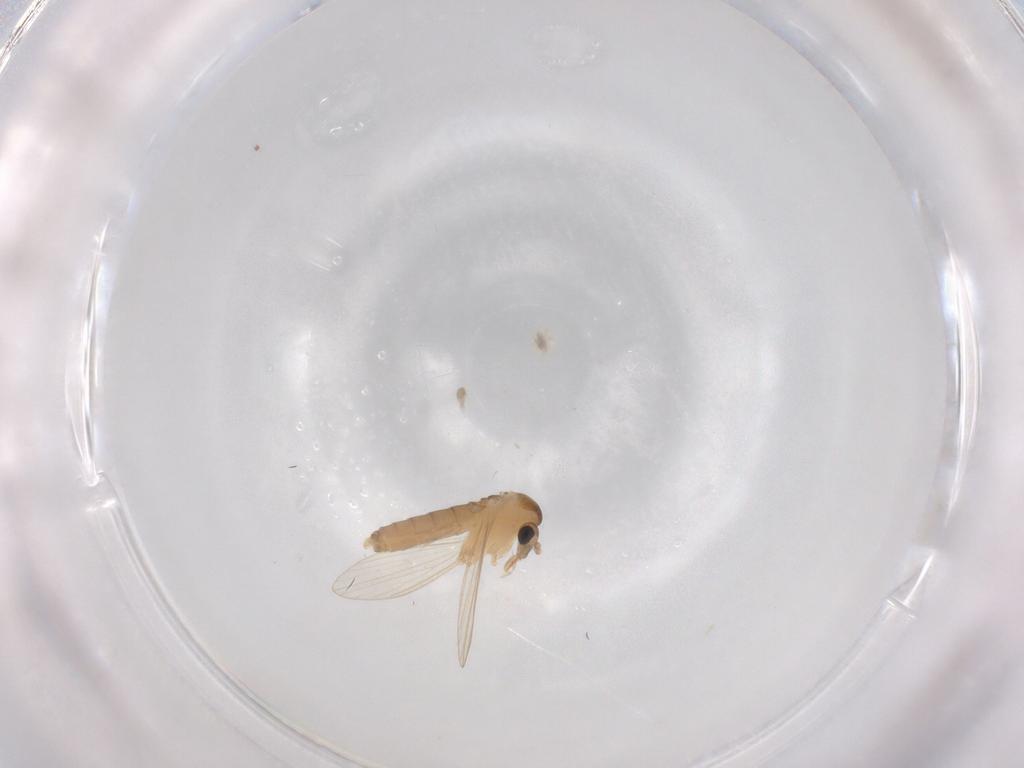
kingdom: Animalia
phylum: Arthropoda
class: Insecta
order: Diptera
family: Psychodidae
